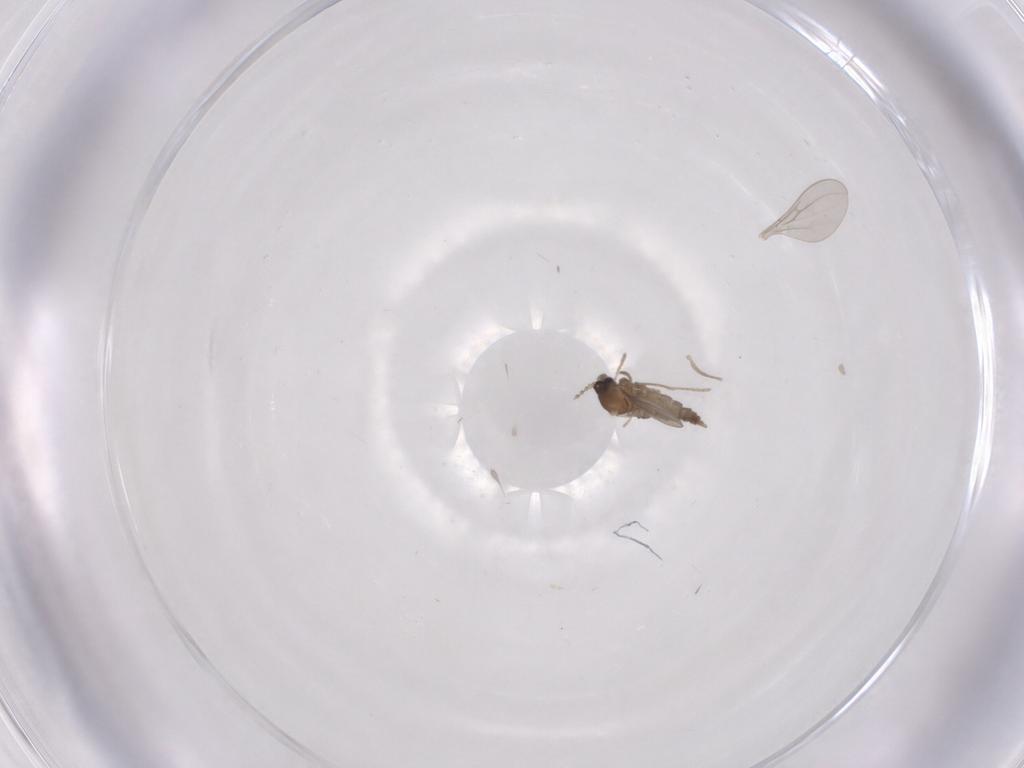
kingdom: Animalia
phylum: Arthropoda
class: Insecta
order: Diptera
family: Cecidomyiidae
